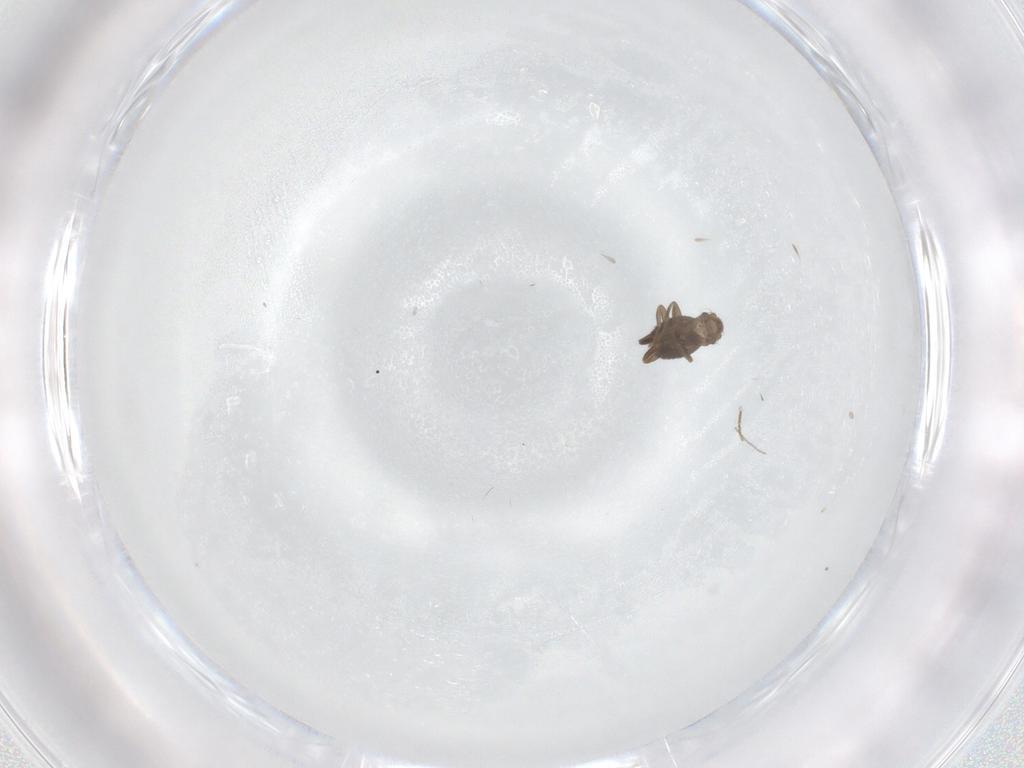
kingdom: Animalia
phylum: Arthropoda
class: Insecta
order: Diptera
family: Cecidomyiidae
